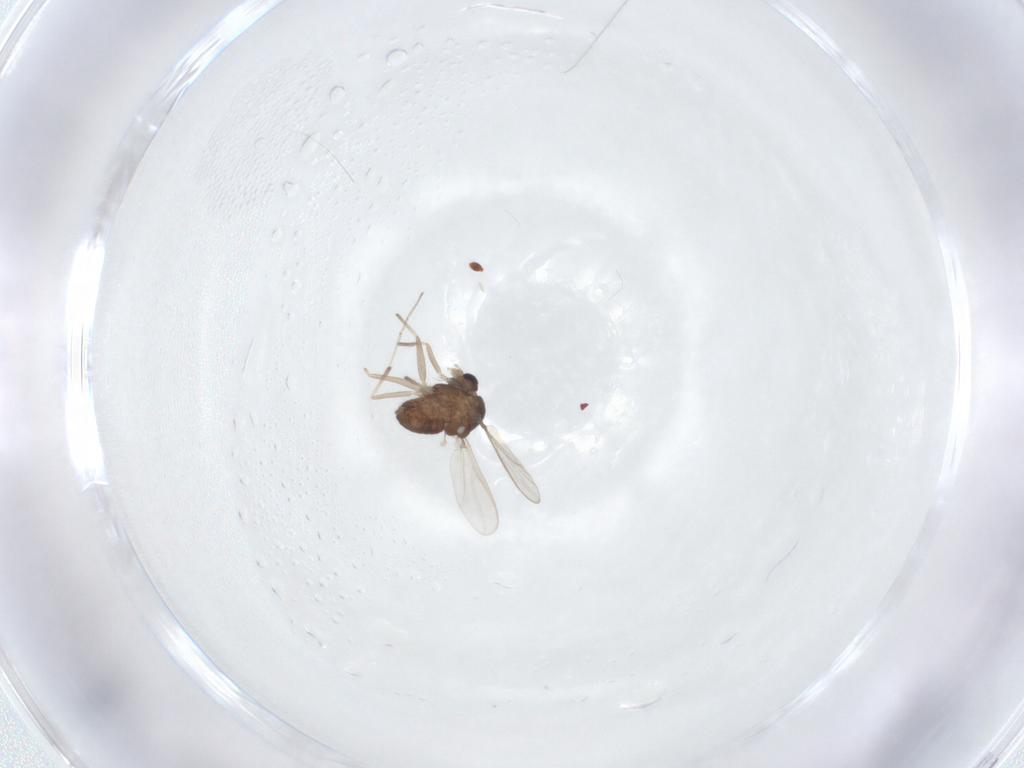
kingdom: Animalia
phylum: Arthropoda
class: Insecta
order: Diptera
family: Chironomidae
